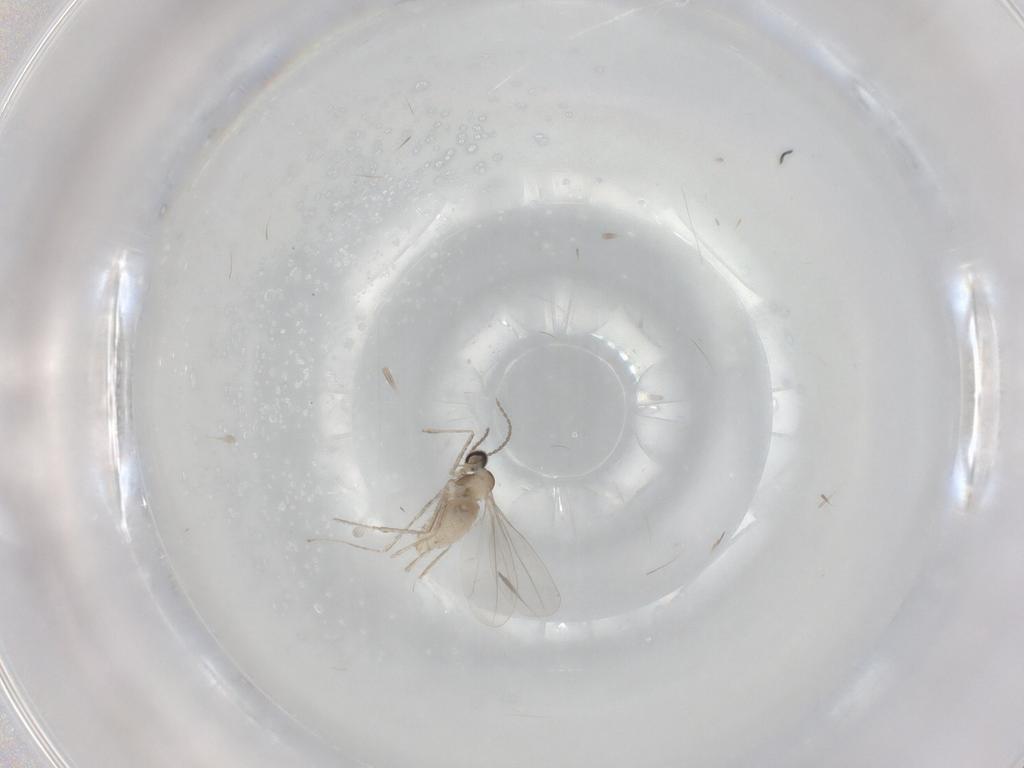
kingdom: Animalia
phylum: Arthropoda
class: Insecta
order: Diptera
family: Sphaeroceridae
